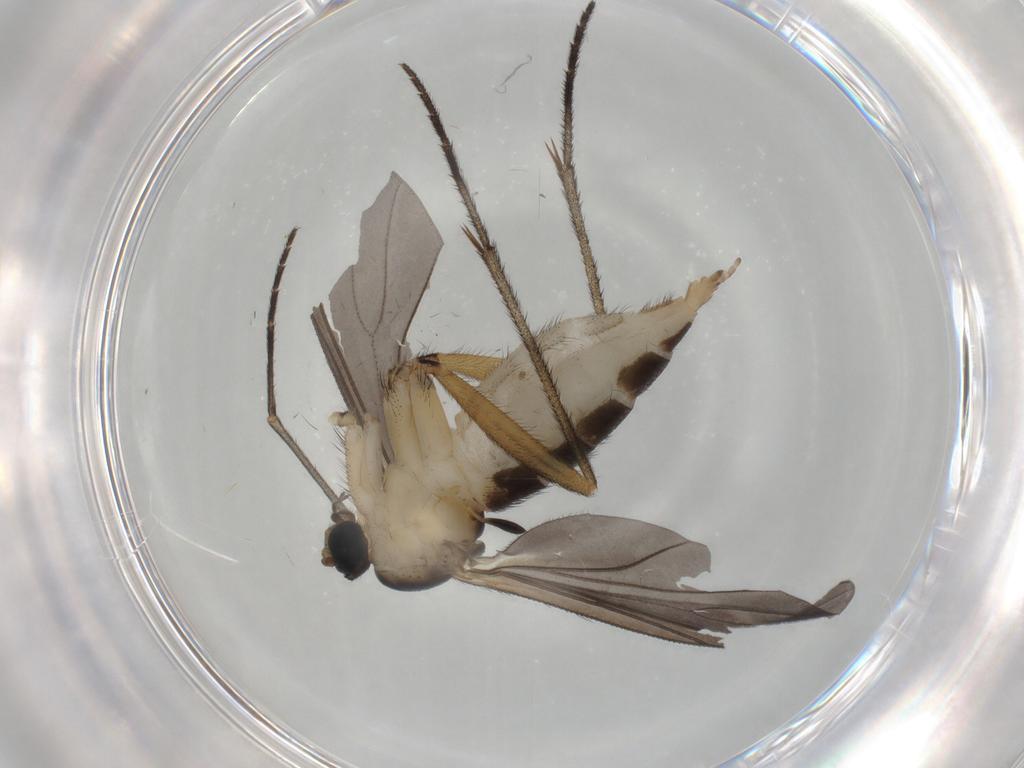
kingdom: Animalia
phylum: Arthropoda
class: Insecta
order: Diptera
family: Sciaridae
